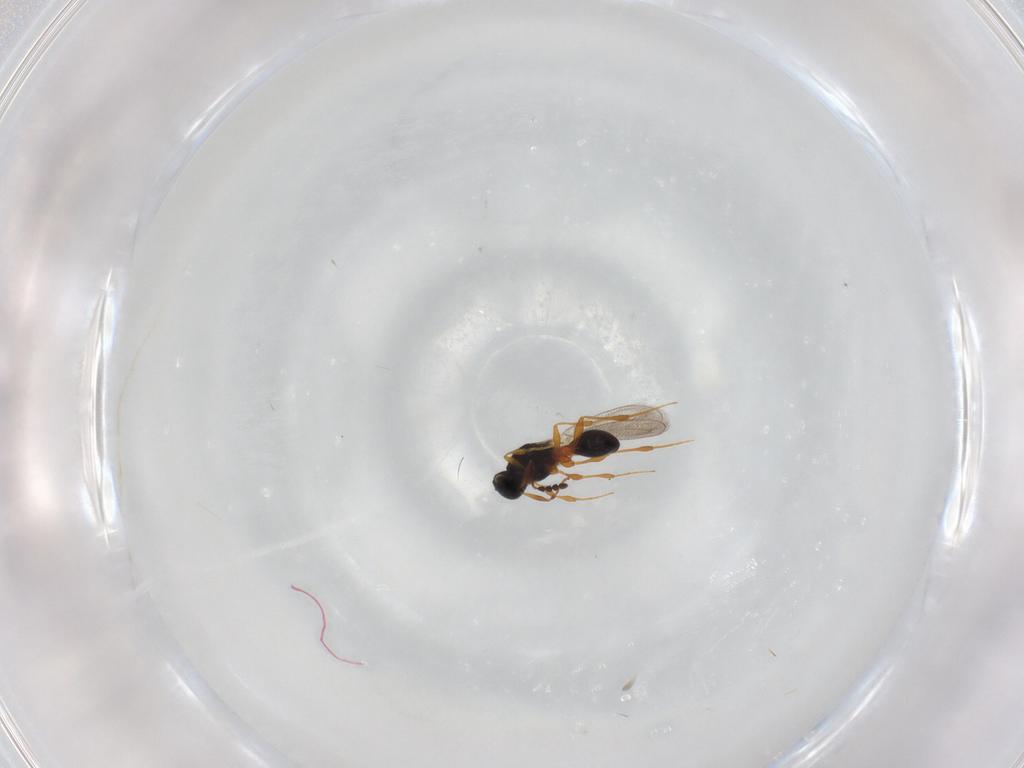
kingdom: Animalia
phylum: Arthropoda
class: Insecta
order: Hymenoptera
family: Platygastridae
